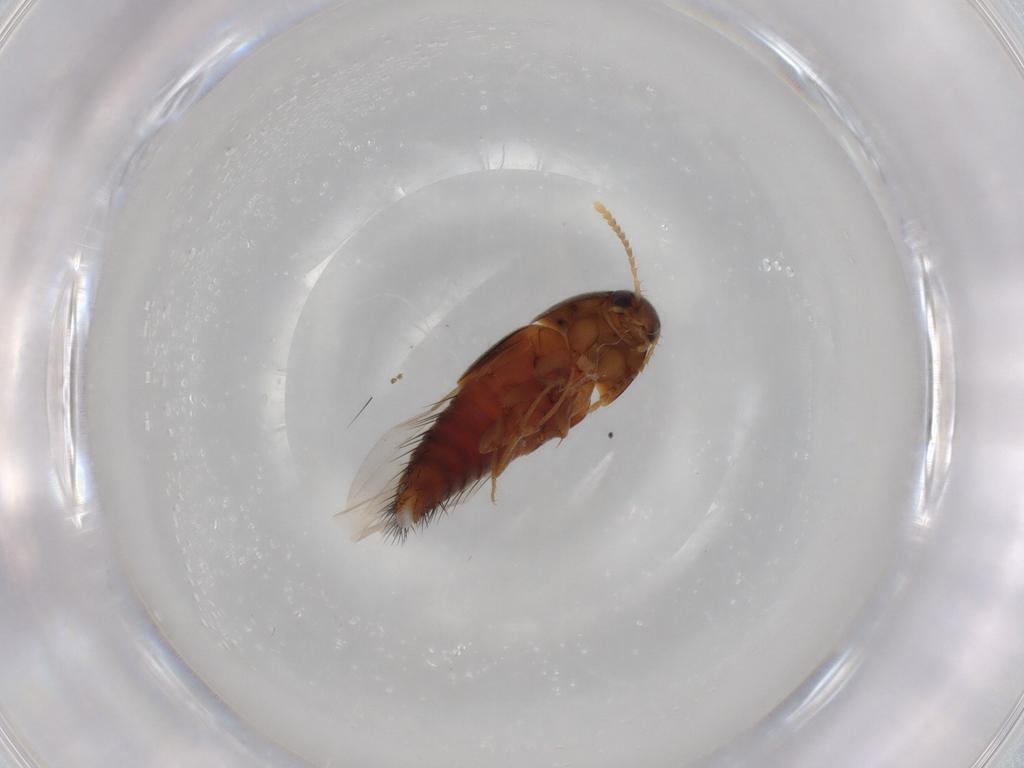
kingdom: Animalia
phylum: Arthropoda
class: Insecta
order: Coleoptera
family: Staphylinidae
